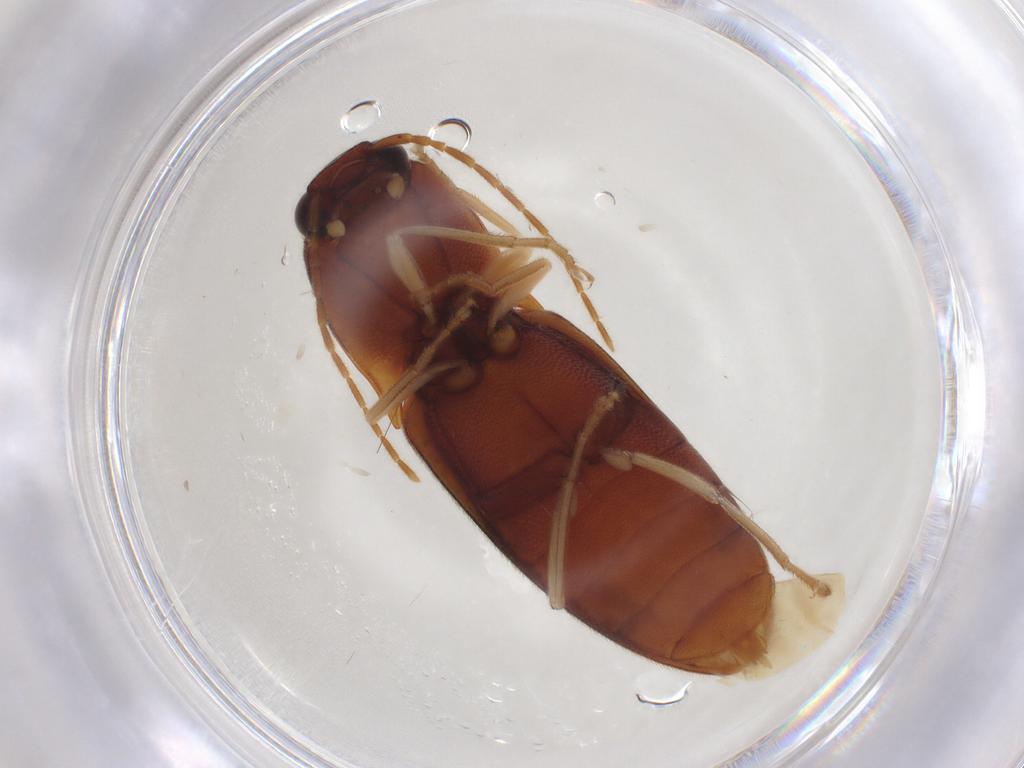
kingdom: Animalia
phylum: Arthropoda
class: Insecta
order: Coleoptera
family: Elateridae
